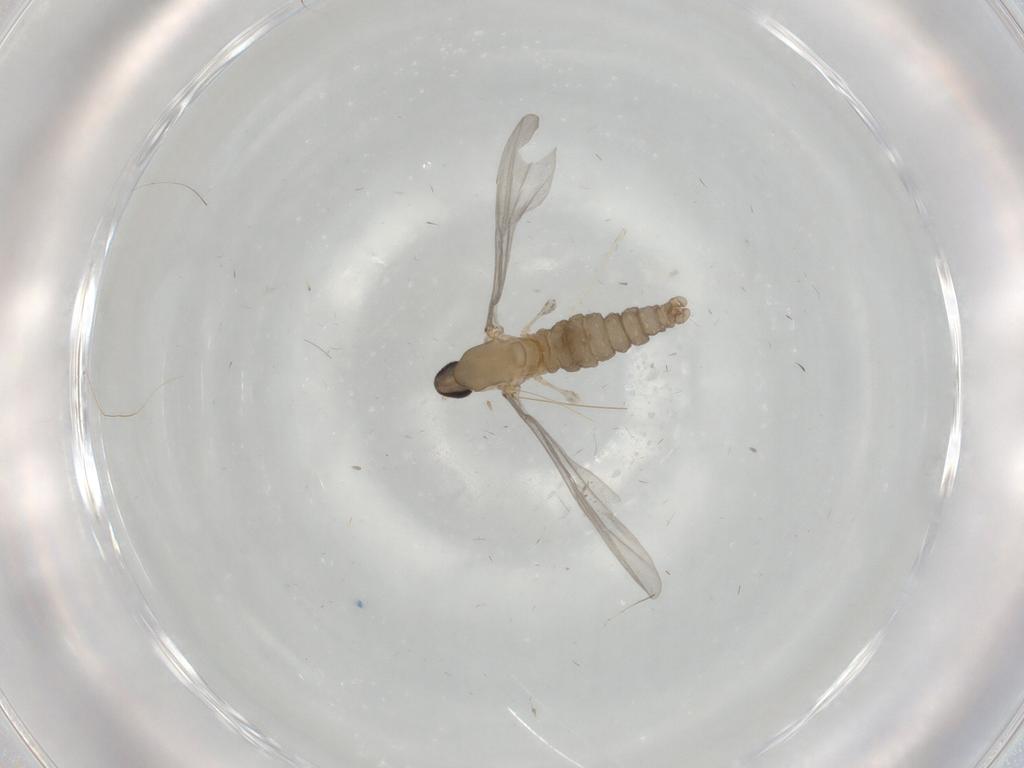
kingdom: Animalia
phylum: Arthropoda
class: Insecta
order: Diptera
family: Cecidomyiidae
